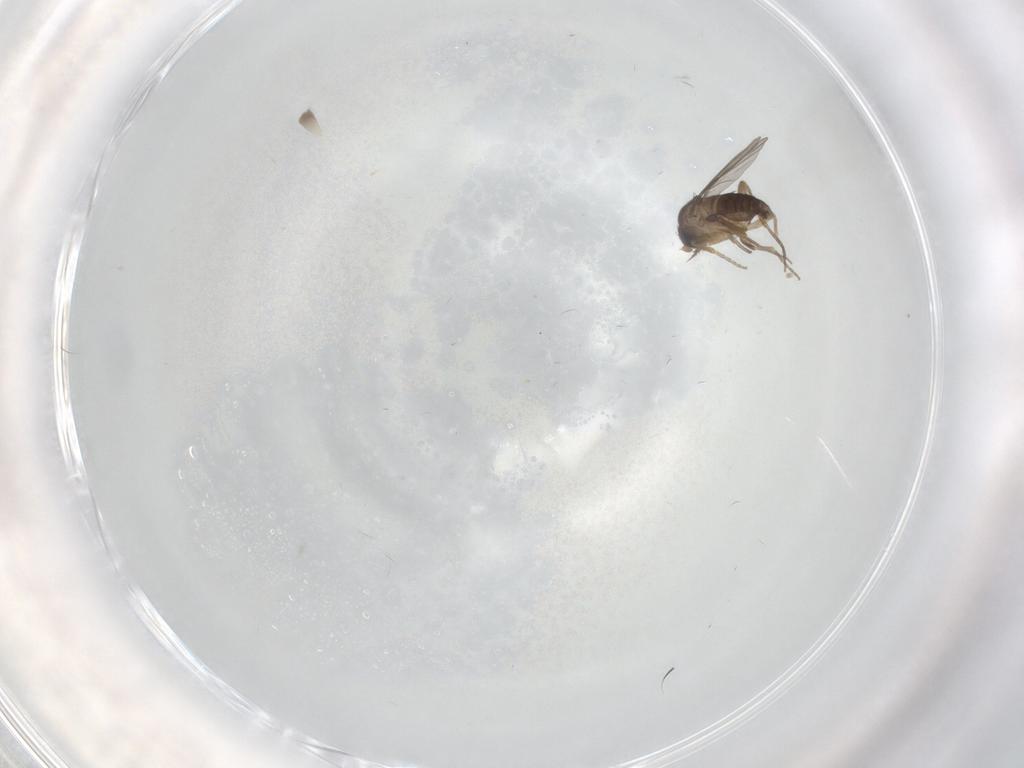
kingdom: Animalia
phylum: Arthropoda
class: Insecta
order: Diptera
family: Phoridae
